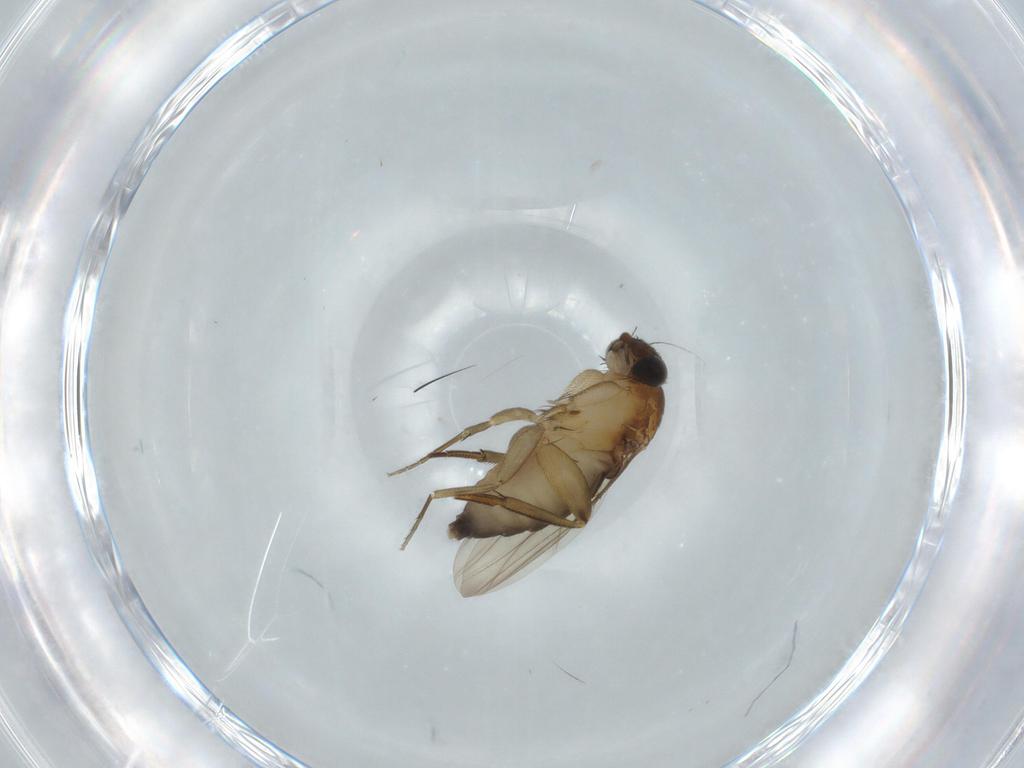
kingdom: Animalia
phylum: Arthropoda
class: Insecta
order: Diptera
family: Phoridae
